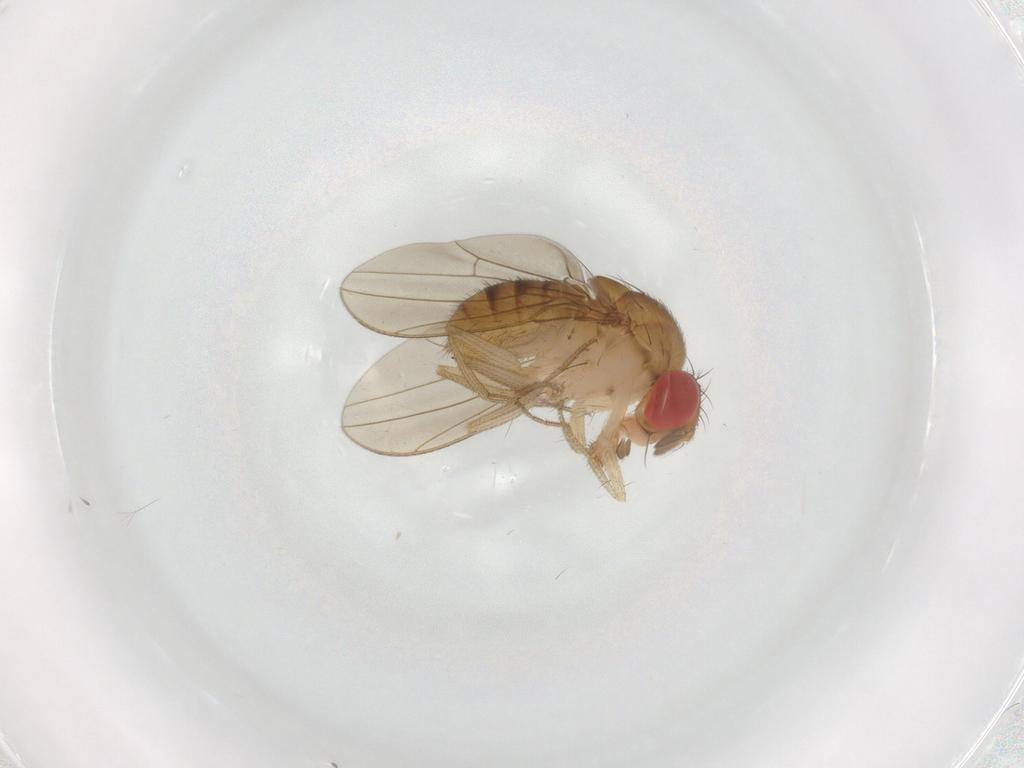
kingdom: Animalia
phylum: Arthropoda
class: Insecta
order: Diptera
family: Drosophilidae
